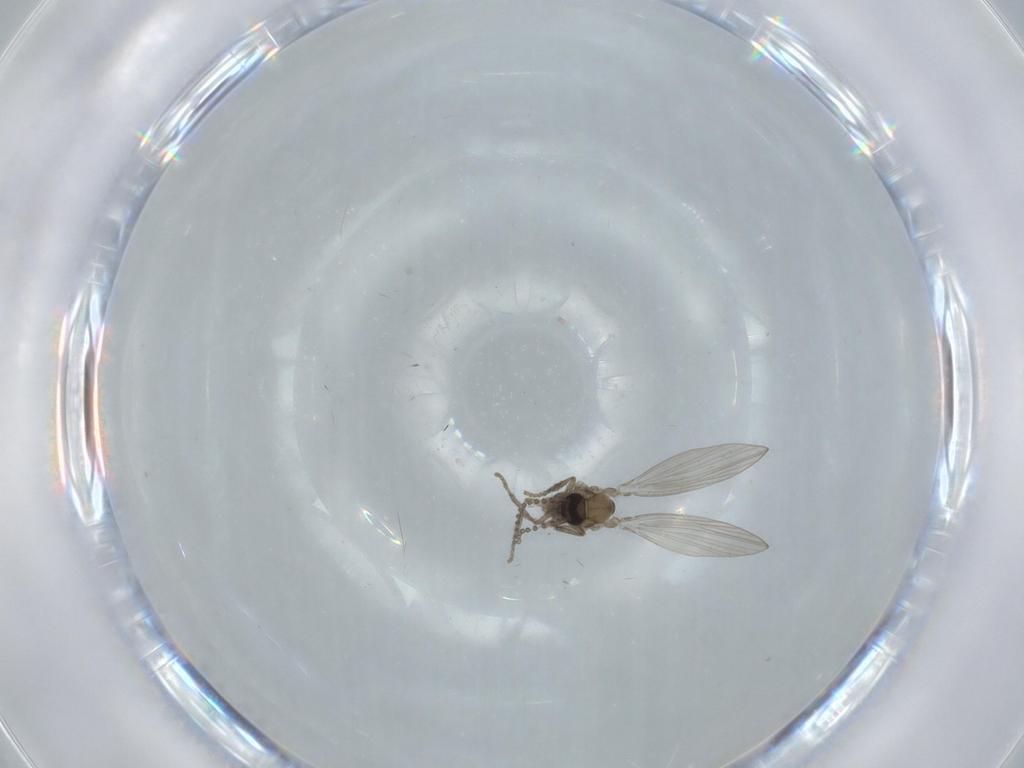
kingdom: Animalia
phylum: Arthropoda
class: Insecta
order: Diptera
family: Psychodidae
